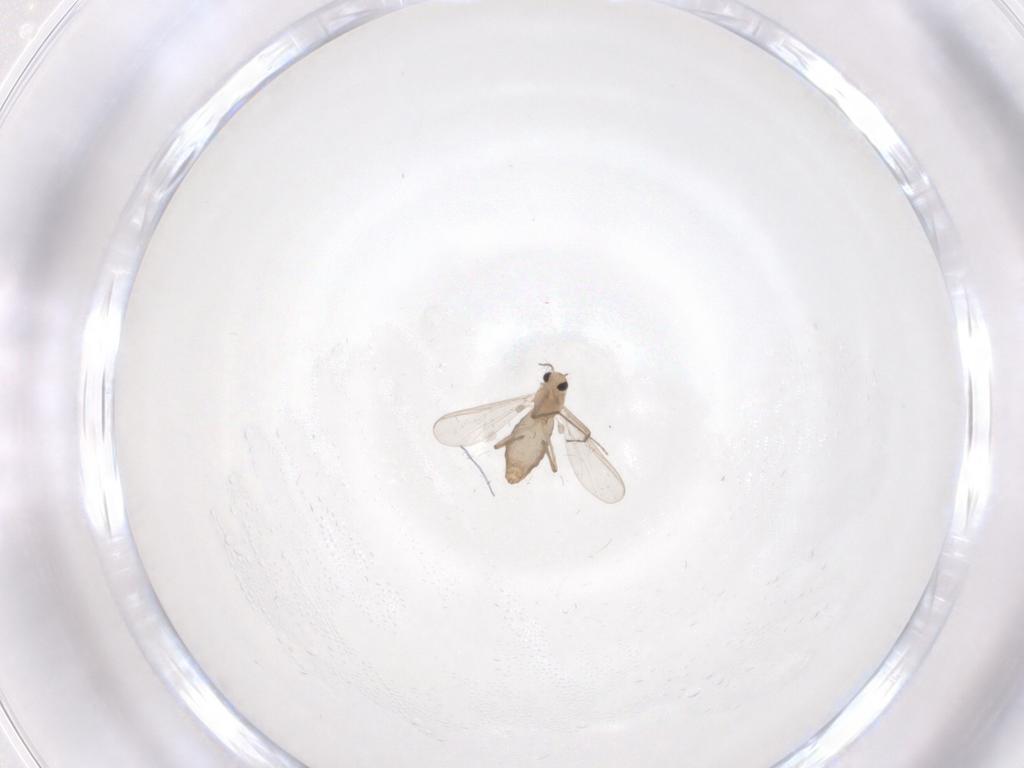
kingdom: Animalia
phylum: Arthropoda
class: Insecta
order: Diptera
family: Chironomidae
